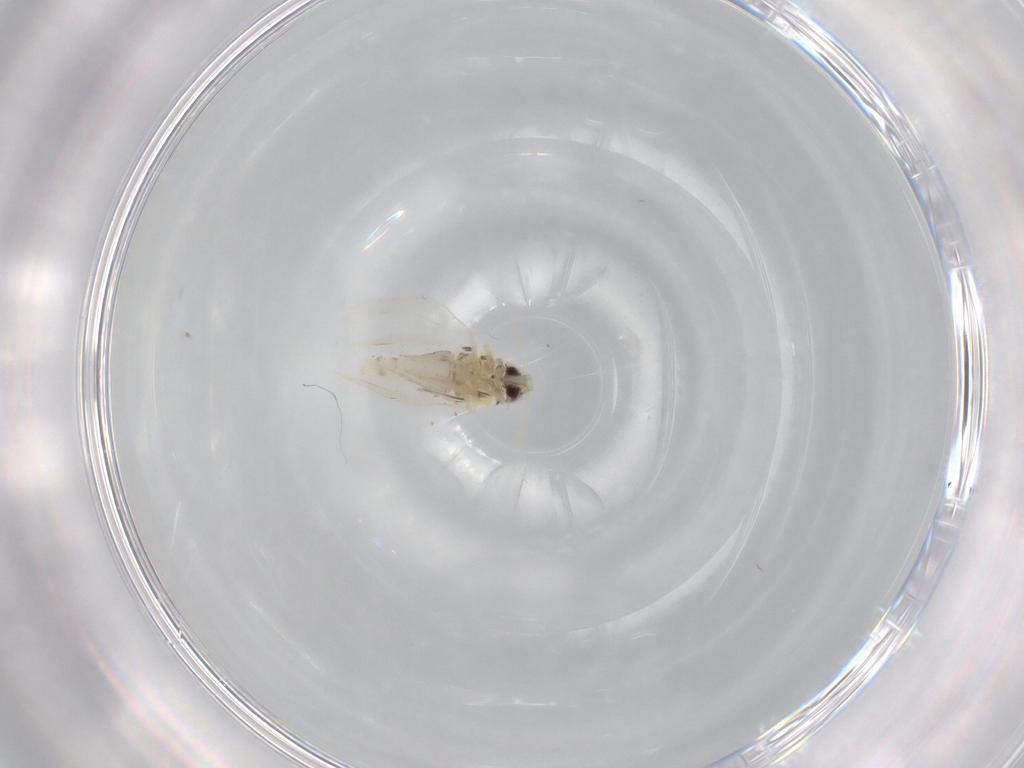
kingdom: Animalia
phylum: Arthropoda
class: Insecta
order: Hemiptera
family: Aleyrodidae
